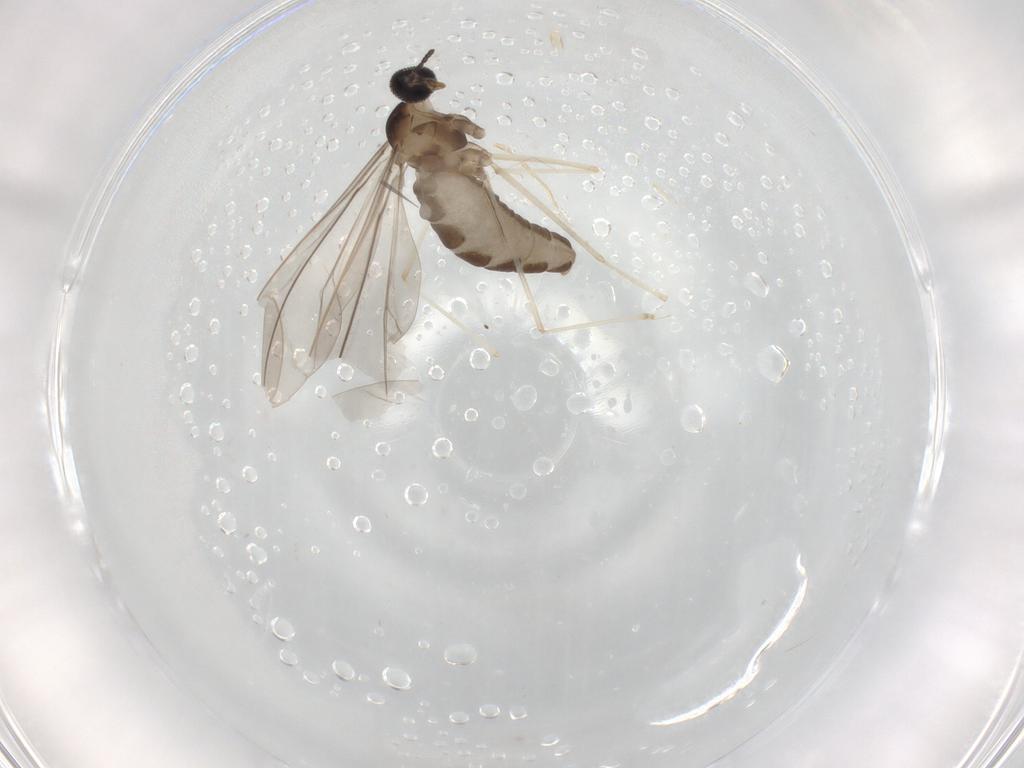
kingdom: Animalia
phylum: Arthropoda
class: Insecta
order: Diptera
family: Cecidomyiidae
